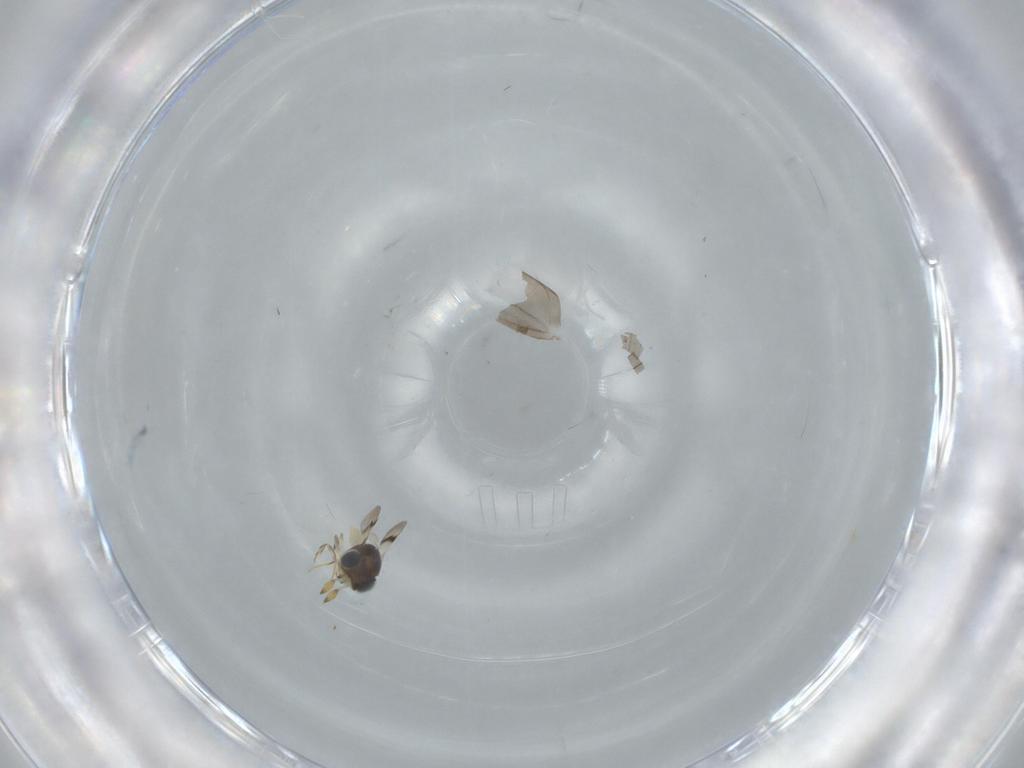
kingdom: Animalia
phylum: Arthropoda
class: Insecta
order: Hymenoptera
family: Scelionidae
